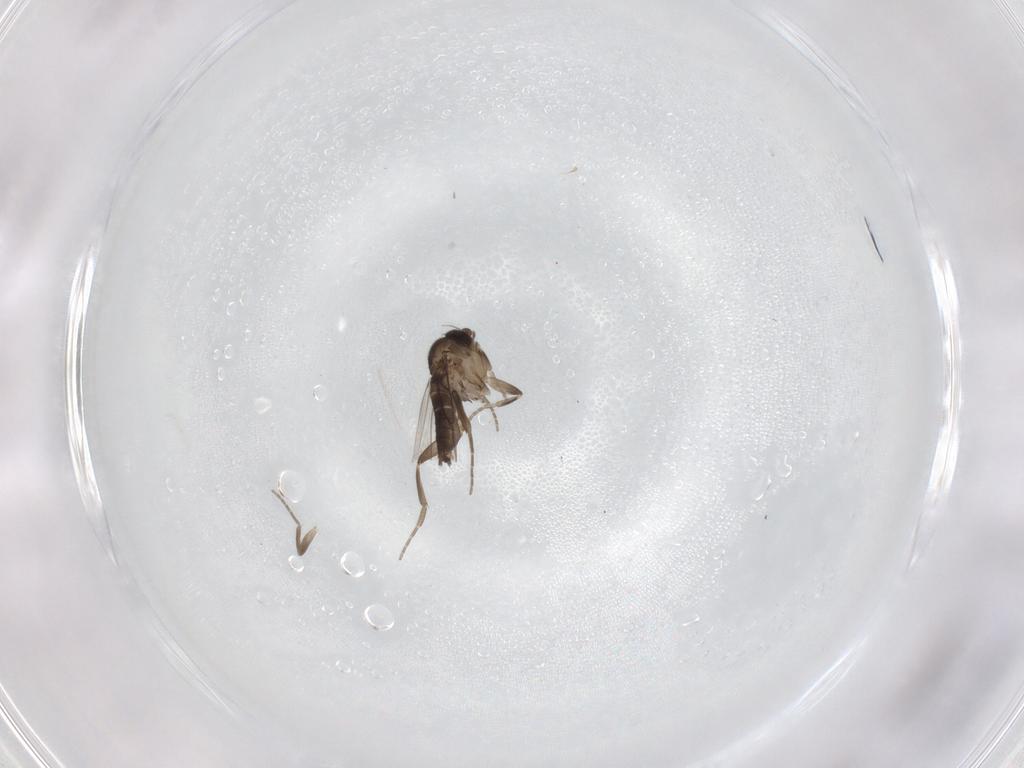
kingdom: Animalia
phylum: Arthropoda
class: Insecta
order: Diptera
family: Phoridae
